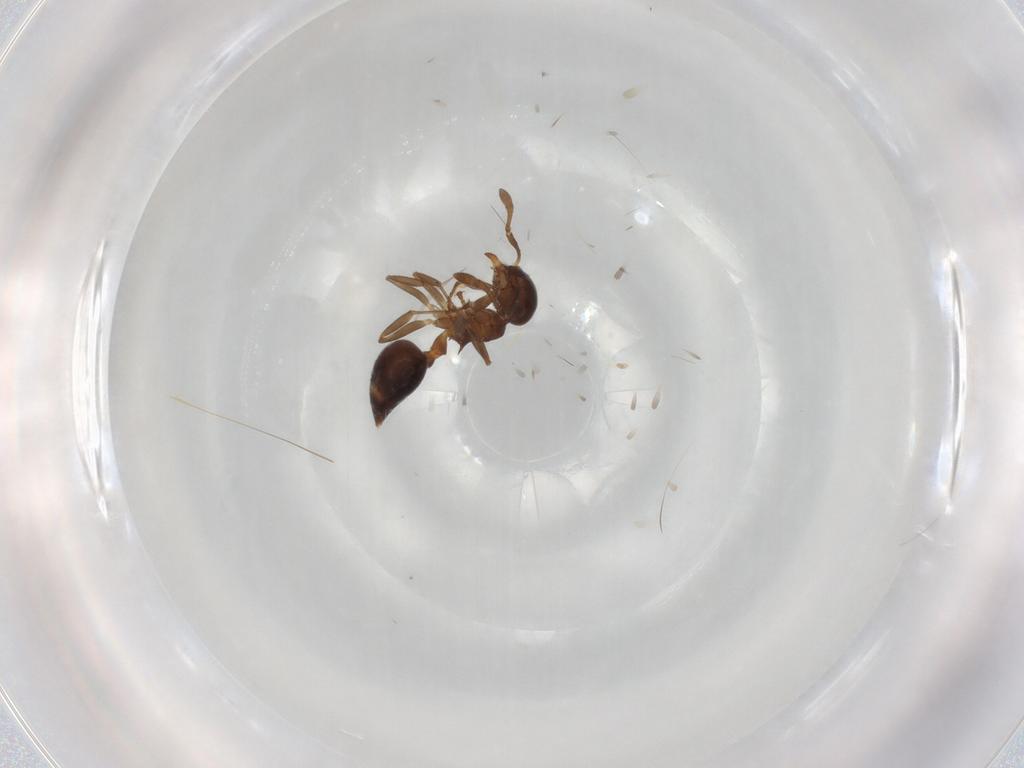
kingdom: Animalia
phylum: Arthropoda
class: Insecta
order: Hymenoptera
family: Formicidae
